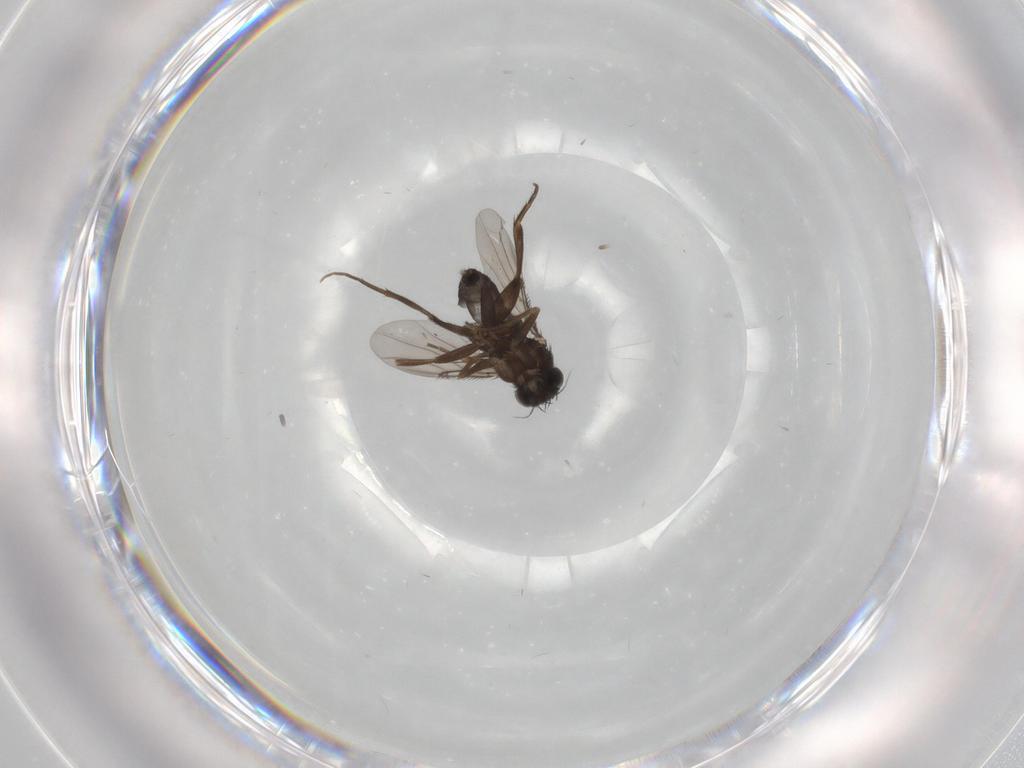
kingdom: Animalia
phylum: Arthropoda
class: Insecta
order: Diptera
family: Phoridae
